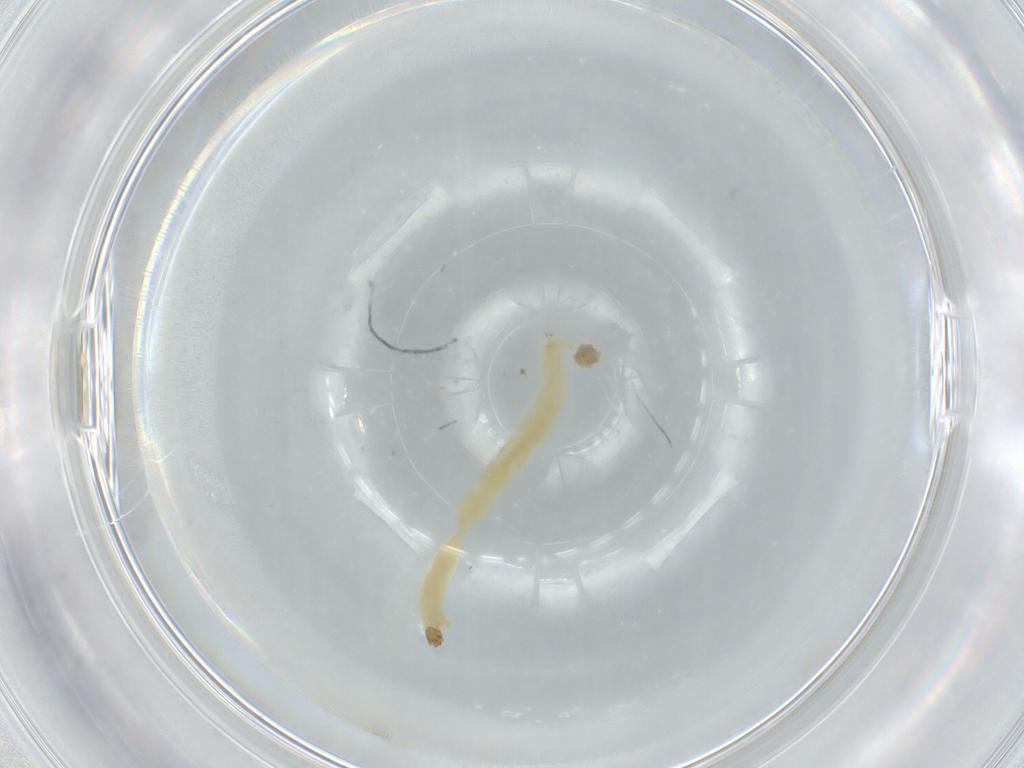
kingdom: Animalia
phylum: Arthropoda
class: Insecta
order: Diptera
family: Chironomidae
